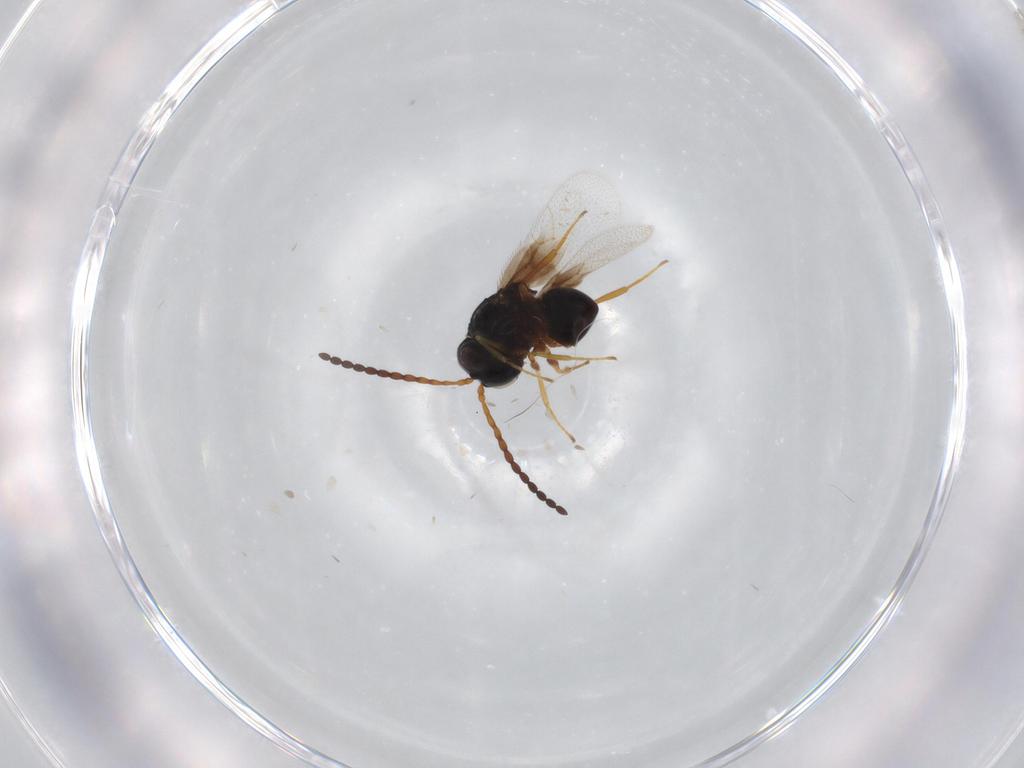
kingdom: Animalia
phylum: Arthropoda
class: Insecta
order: Hymenoptera
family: Figitidae
